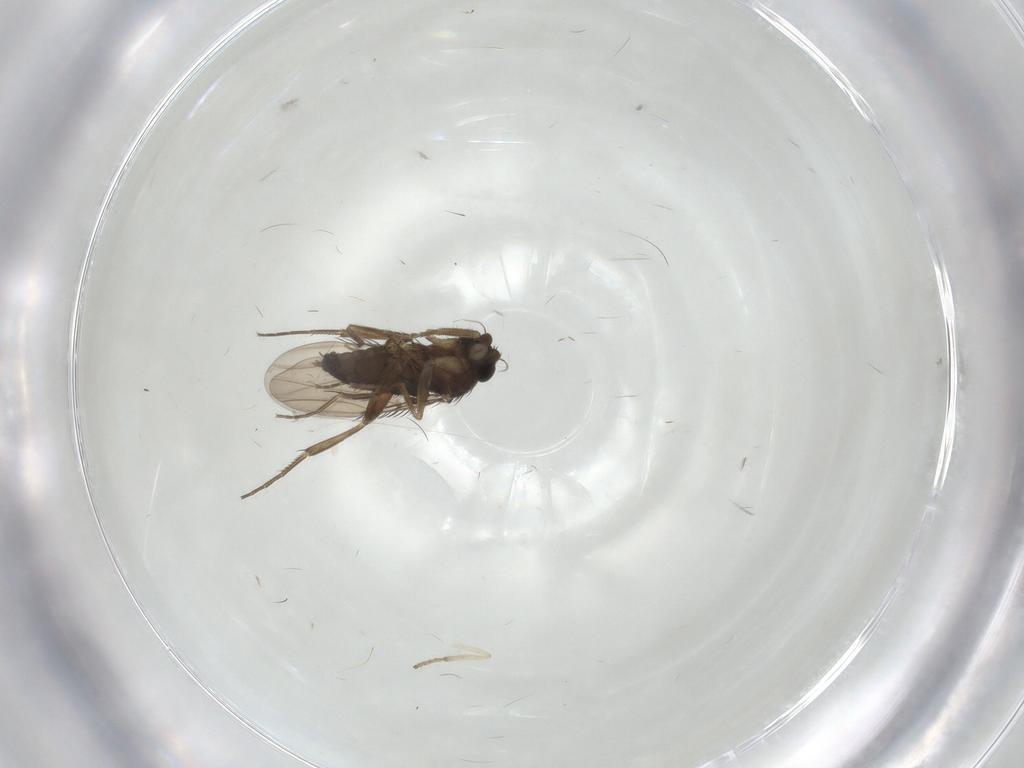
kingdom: Animalia
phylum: Arthropoda
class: Insecta
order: Diptera
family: Phoridae
